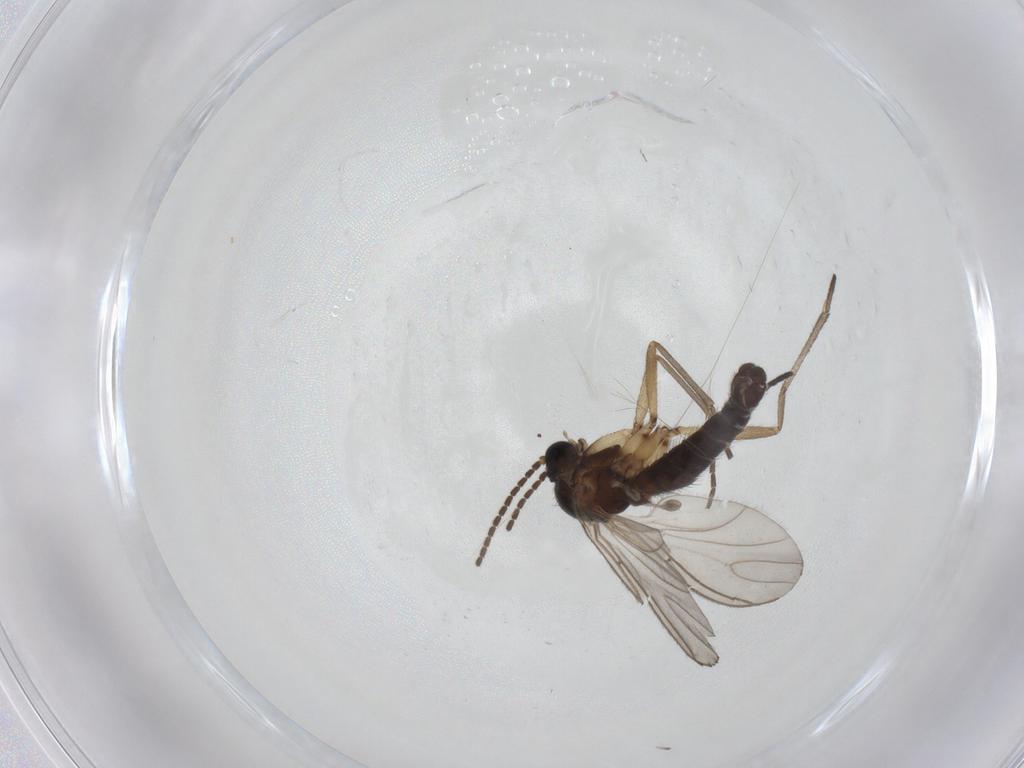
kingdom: Animalia
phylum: Arthropoda
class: Insecta
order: Diptera
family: Sciaridae
